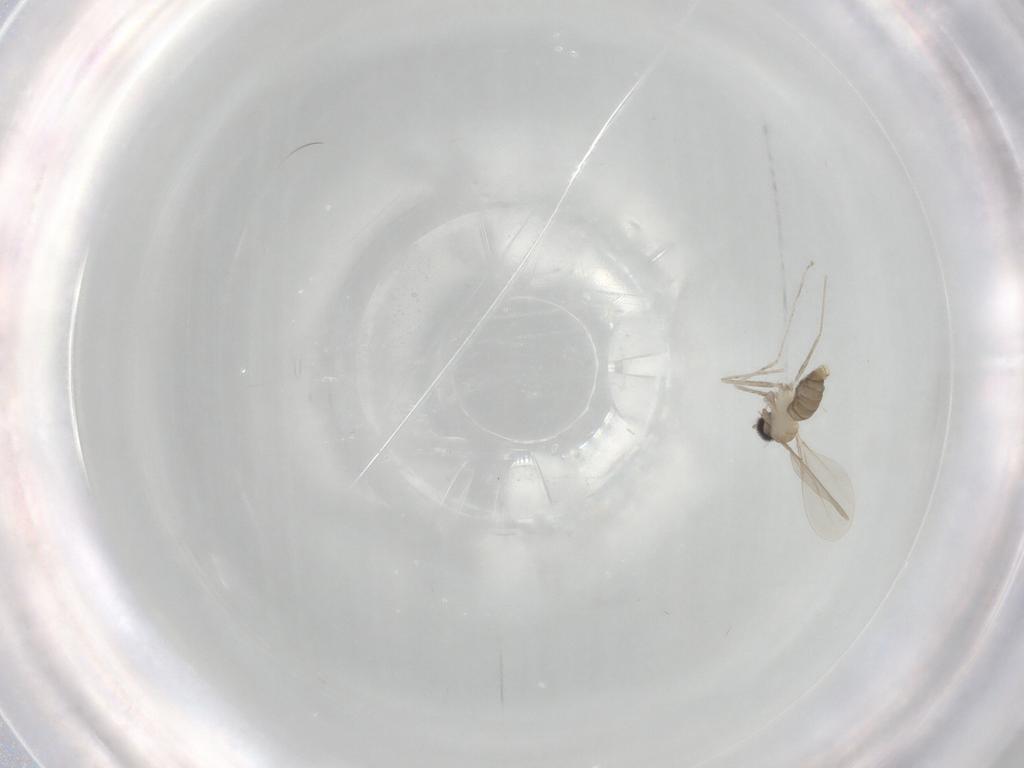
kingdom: Animalia
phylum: Arthropoda
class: Insecta
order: Diptera
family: Cecidomyiidae
